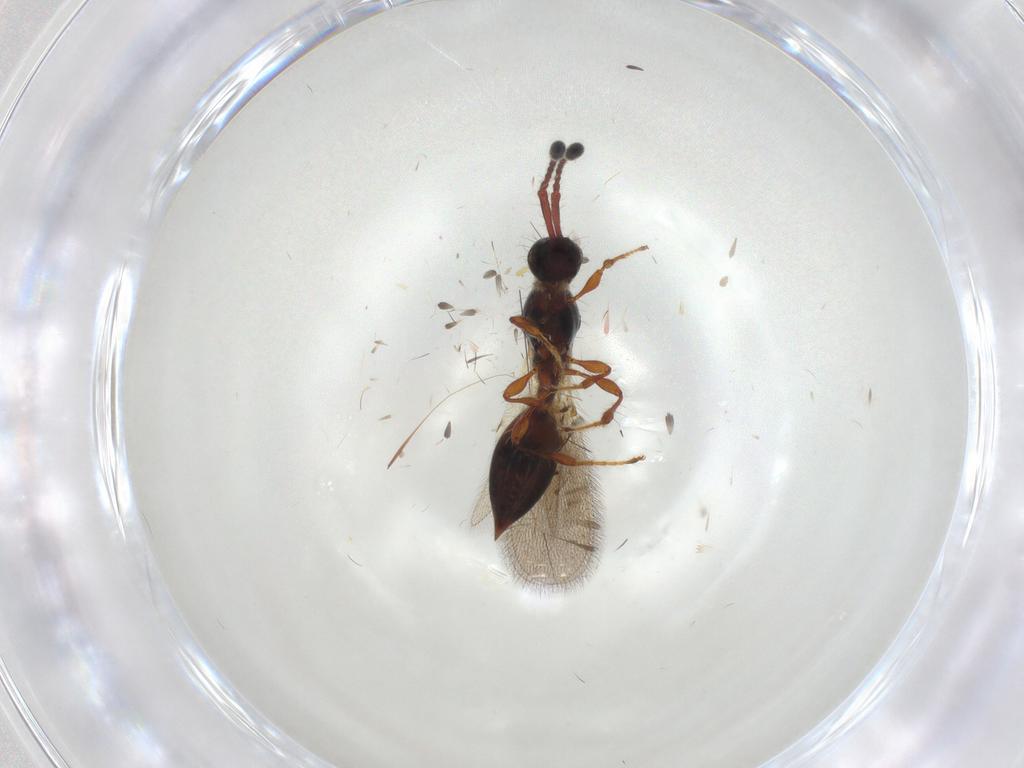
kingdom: Animalia
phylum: Arthropoda
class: Insecta
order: Hymenoptera
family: Diapriidae
